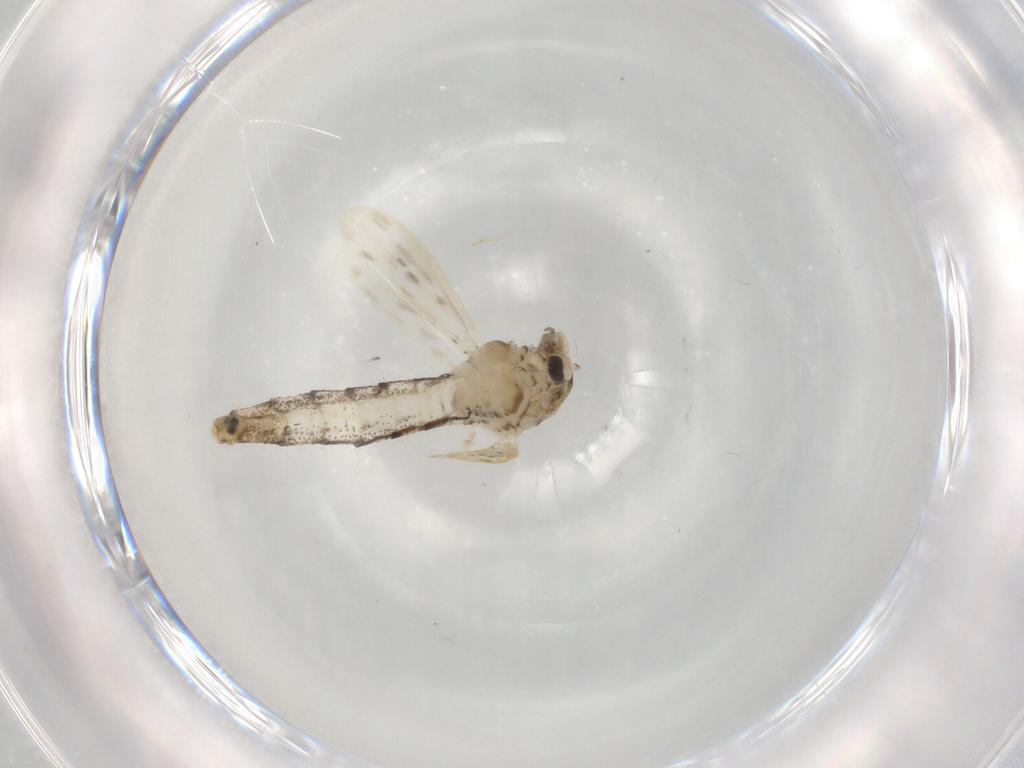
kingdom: Animalia
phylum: Arthropoda
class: Insecta
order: Diptera
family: Chaoboridae
